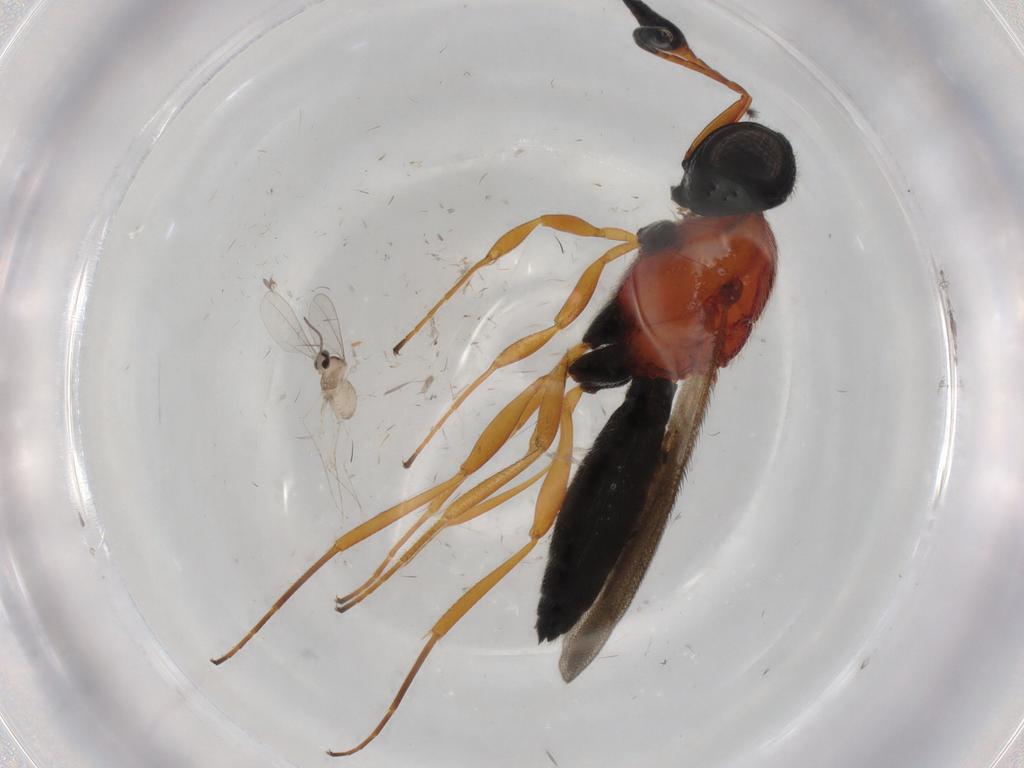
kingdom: Animalia
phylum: Arthropoda
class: Insecta
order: Diptera
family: Cecidomyiidae
